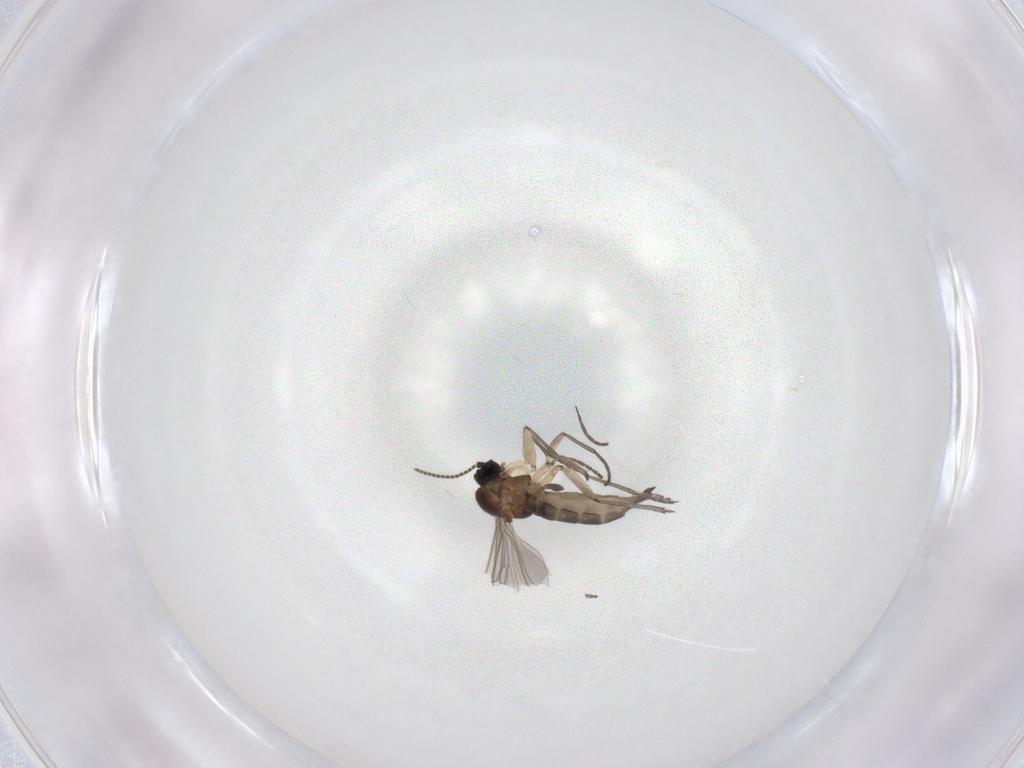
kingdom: Animalia
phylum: Arthropoda
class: Insecta
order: Diptera
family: Sciaridae
